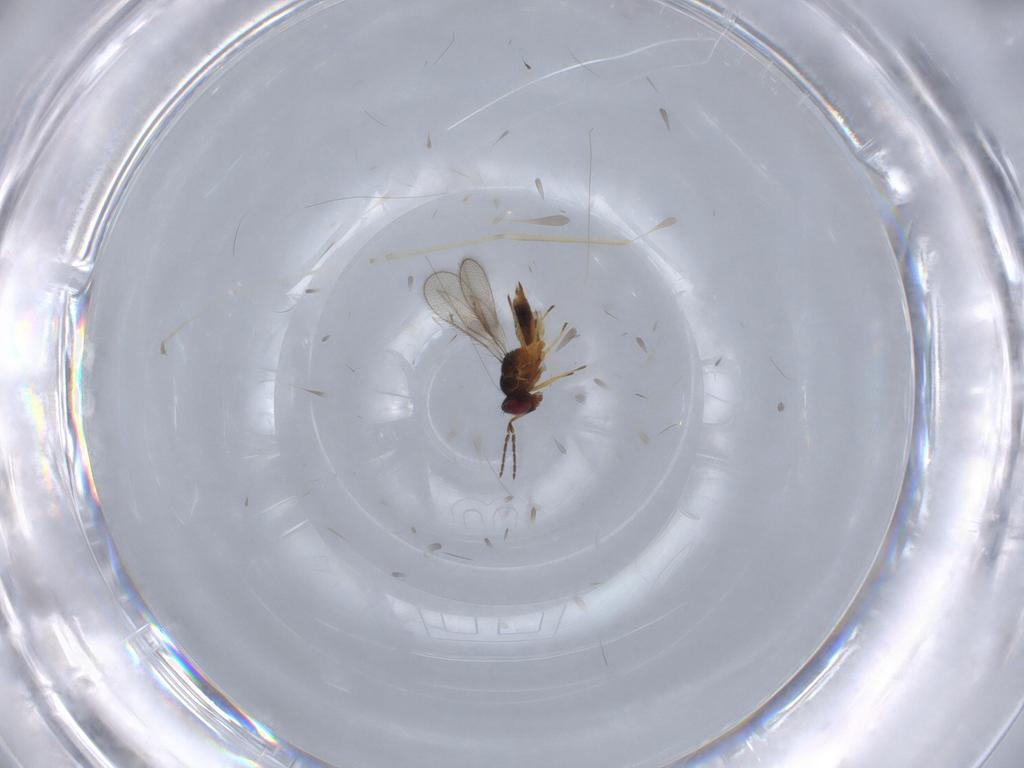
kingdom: Animalia
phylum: Arthropoda
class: Insecta
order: Hymenoptera
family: Eulophidae
